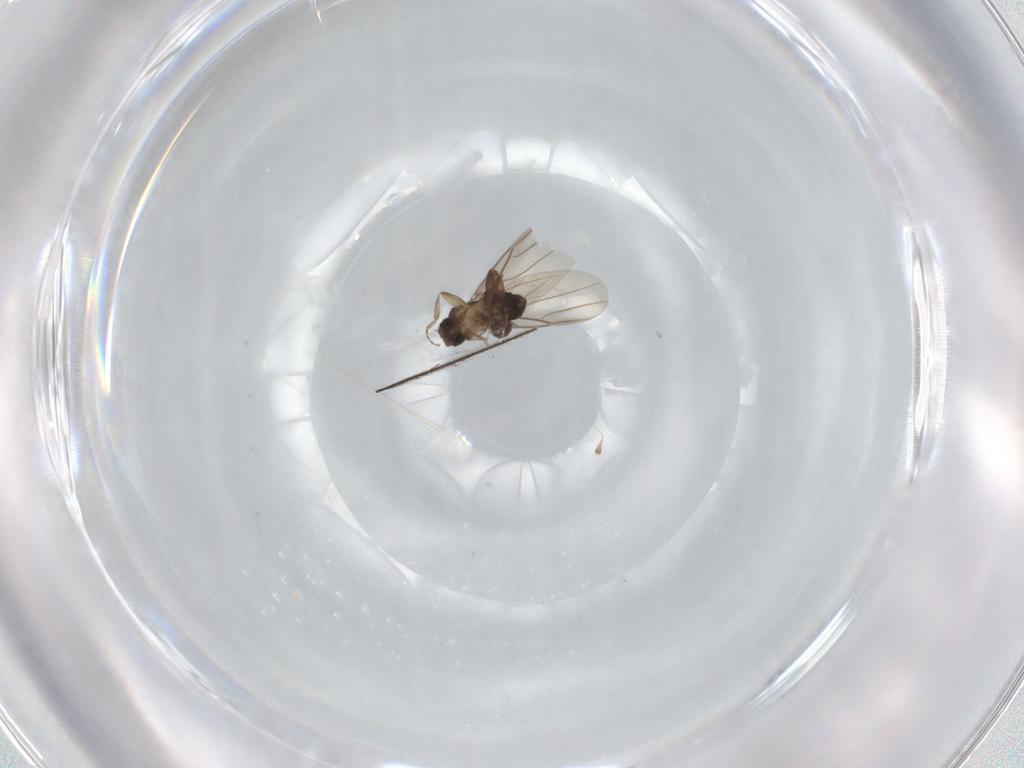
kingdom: Animalia
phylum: Arthropoda
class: Insecta
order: Diptera
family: Phoridae
